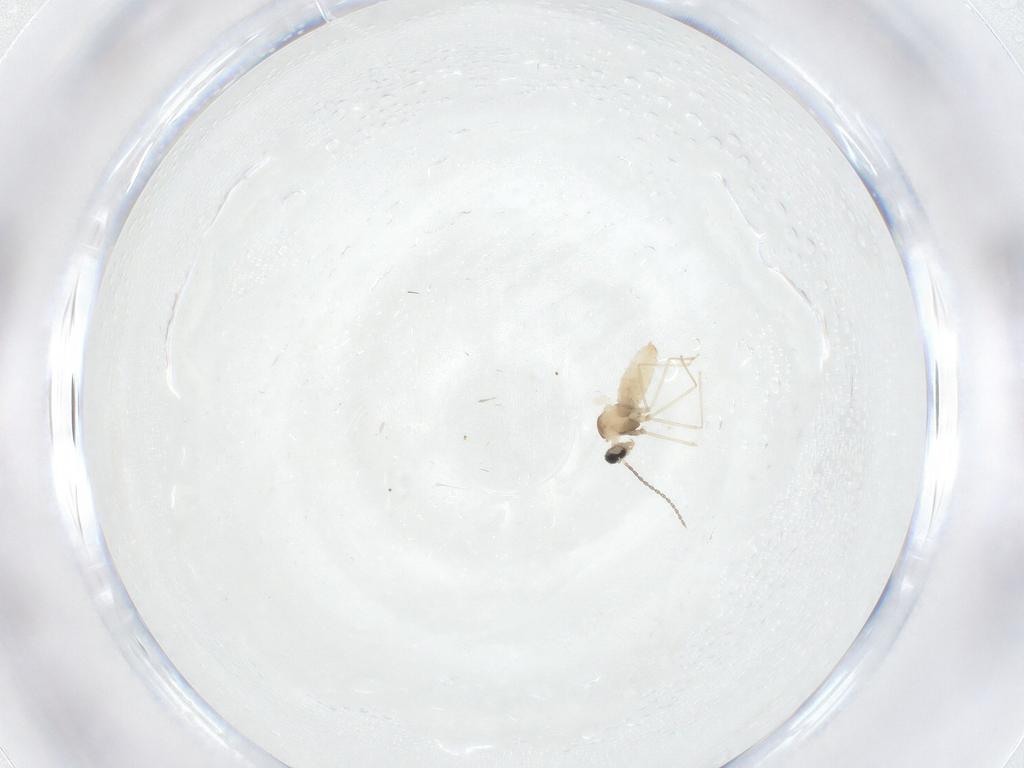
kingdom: Animalia
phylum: Arthropoda
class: Insecta
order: Diptera
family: Cecidomyiidae
